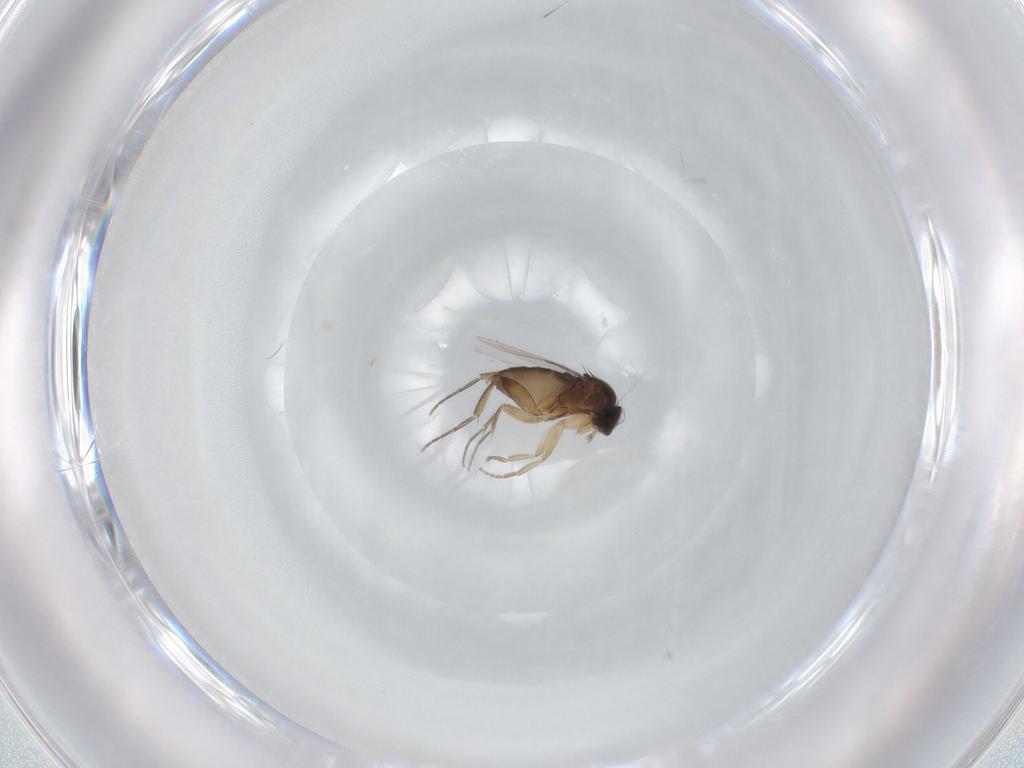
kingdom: Animalia
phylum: Arthropoda
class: Insecta
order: Diptera
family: Phoridae
